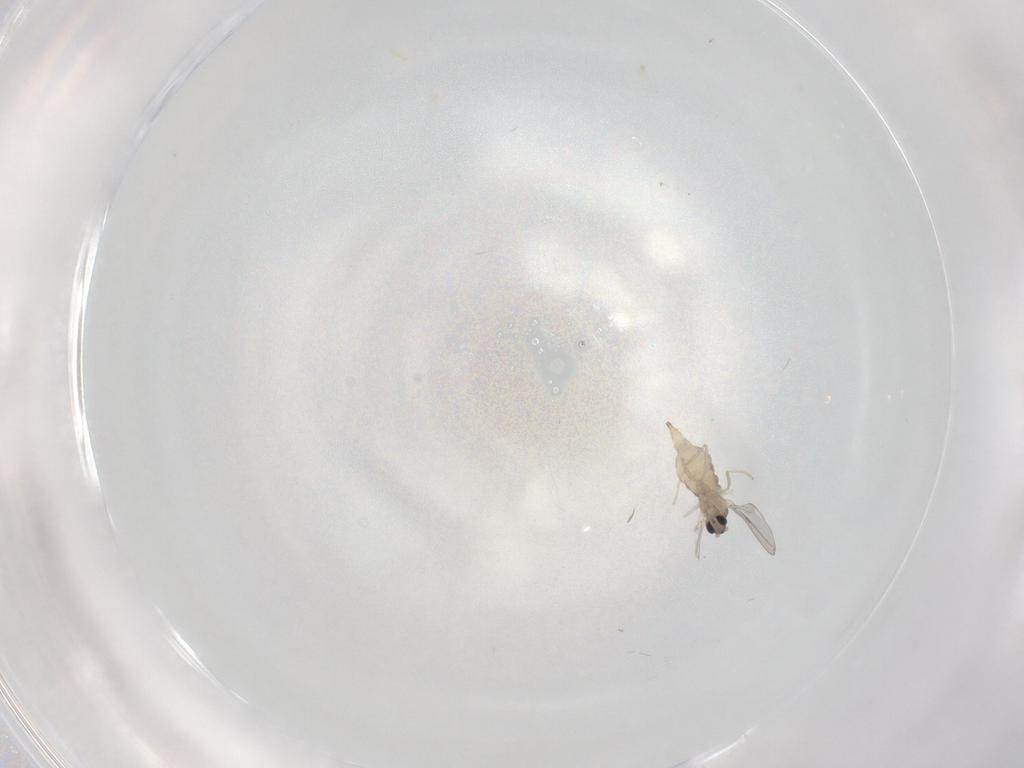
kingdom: Animalia
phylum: Arthropoda
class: Insecta
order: Diptera
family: Cecidomyiidae
